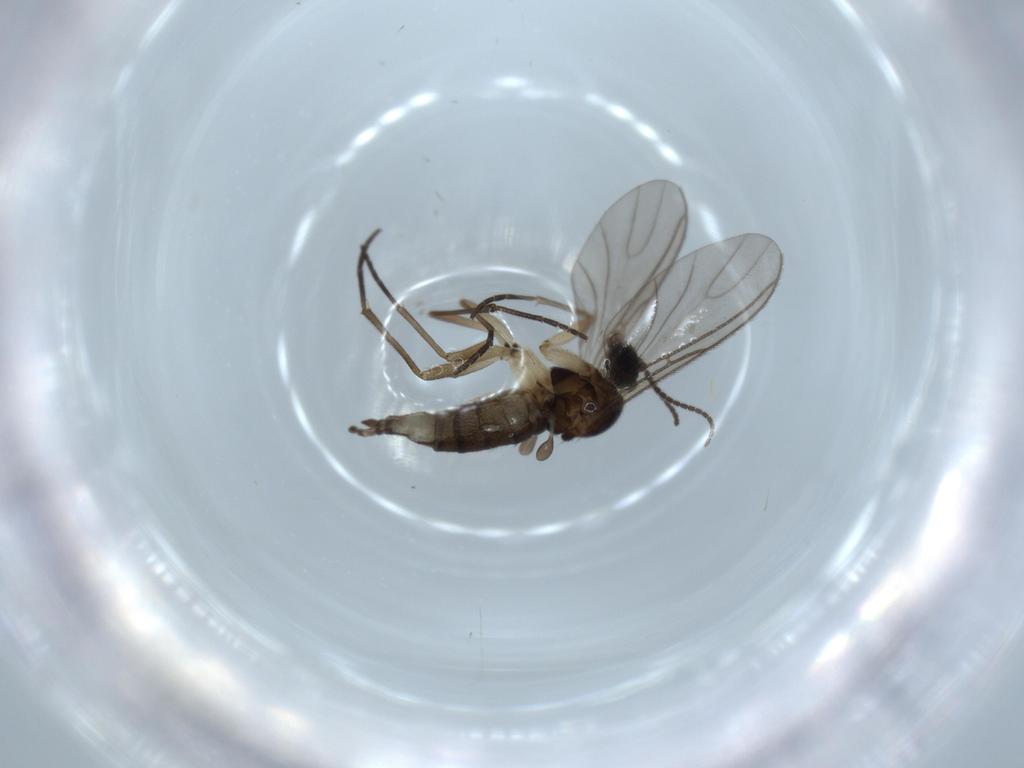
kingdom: Animalia
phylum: Arthropoda
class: Insecta
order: Diptera
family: Sciaridae
